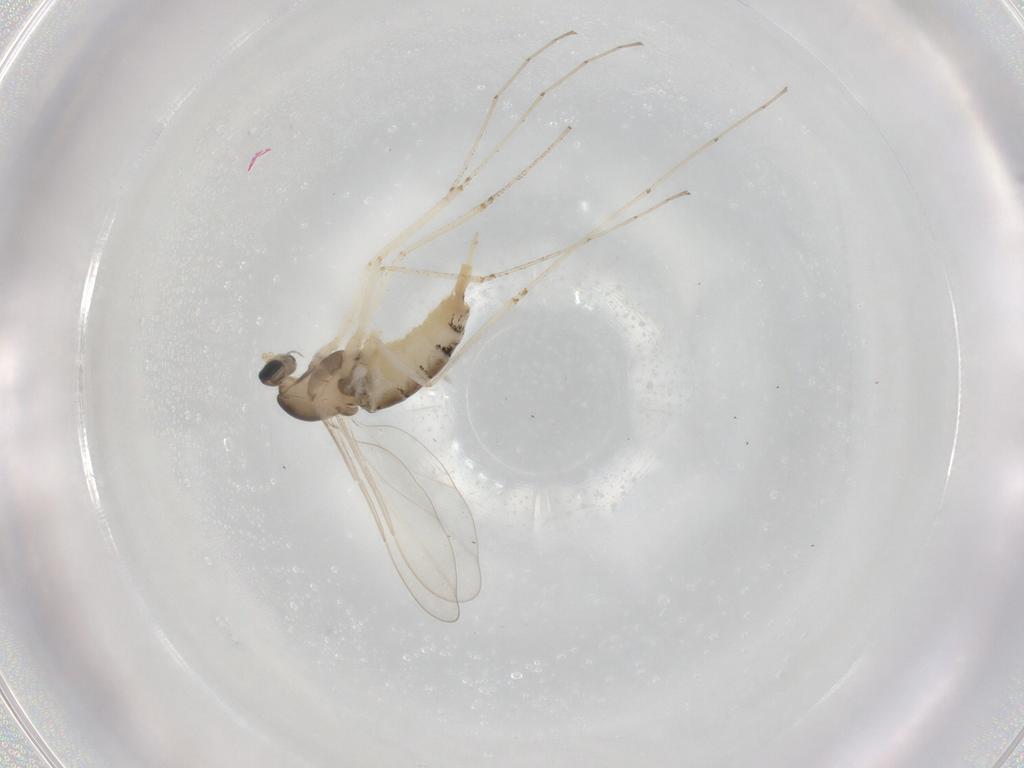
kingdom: Animalia
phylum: Arthropoda
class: Insecta
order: Diptera
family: Cecidomyiidae
